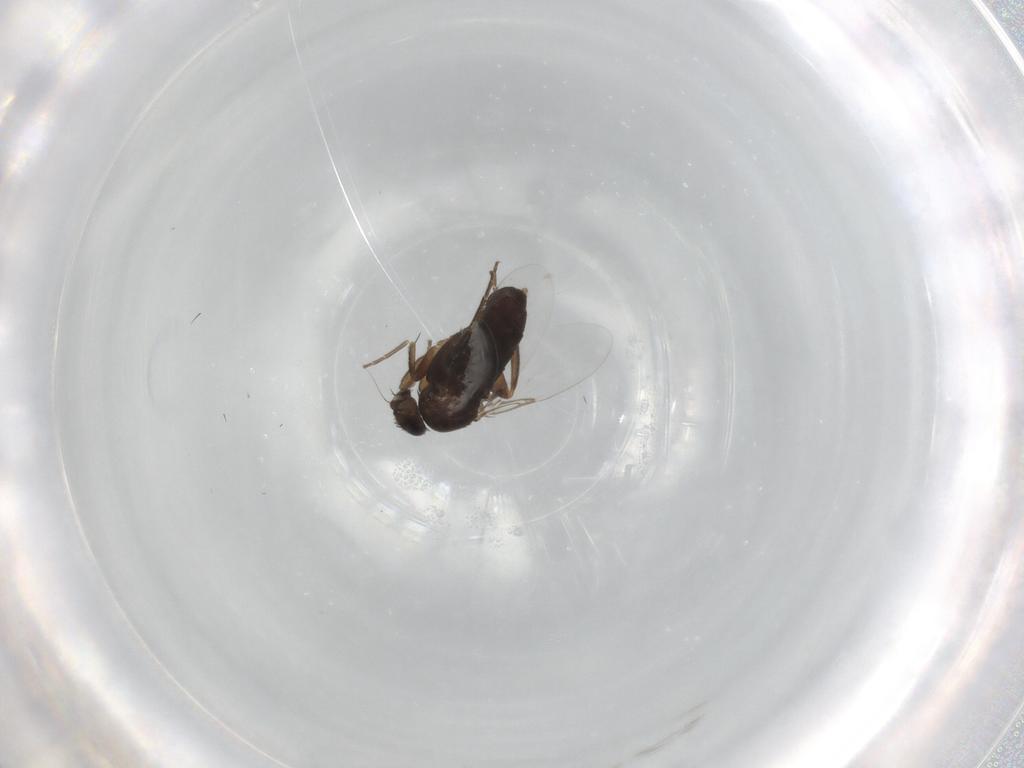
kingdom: Animalia
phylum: Arthropoda
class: Insecta
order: Diptera
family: Phoridae
